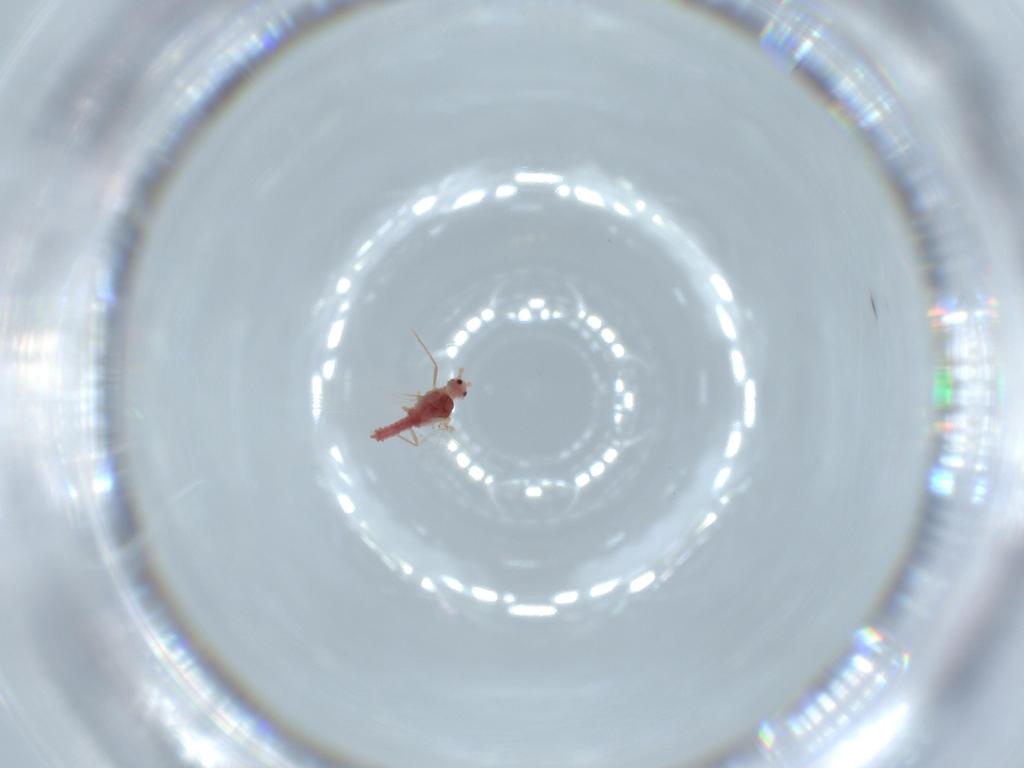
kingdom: Animalia
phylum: Arthropoda
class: Insecta
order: Hemiptera
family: Coccoidea_incertae_sedis
